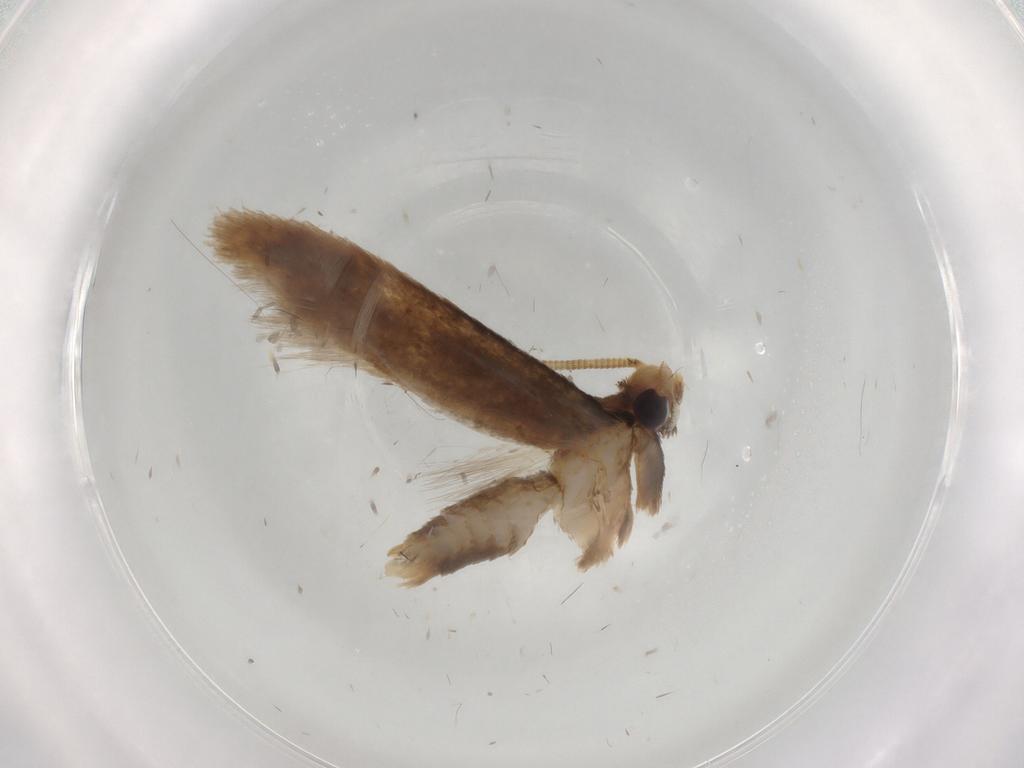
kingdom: Animalia
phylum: Arthropoda
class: Insecta
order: Lepidoptera
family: Coleophoridae
